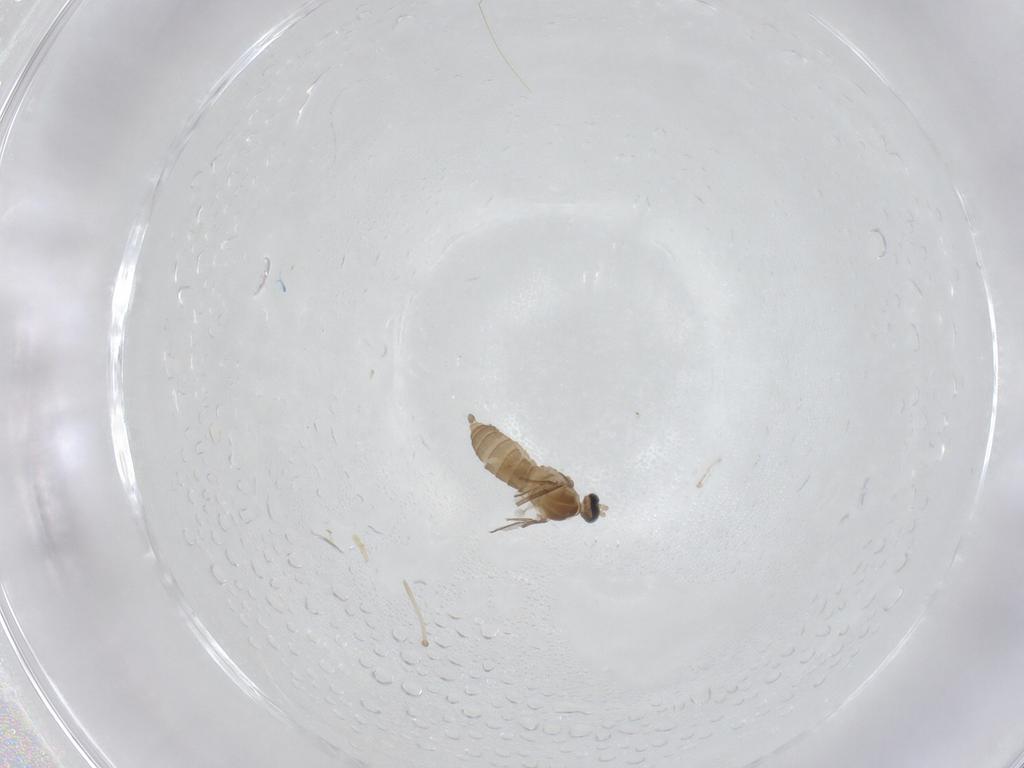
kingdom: Animalia
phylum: Arthropoda
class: Insecta
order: Diptera
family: Cecidomyiidae
